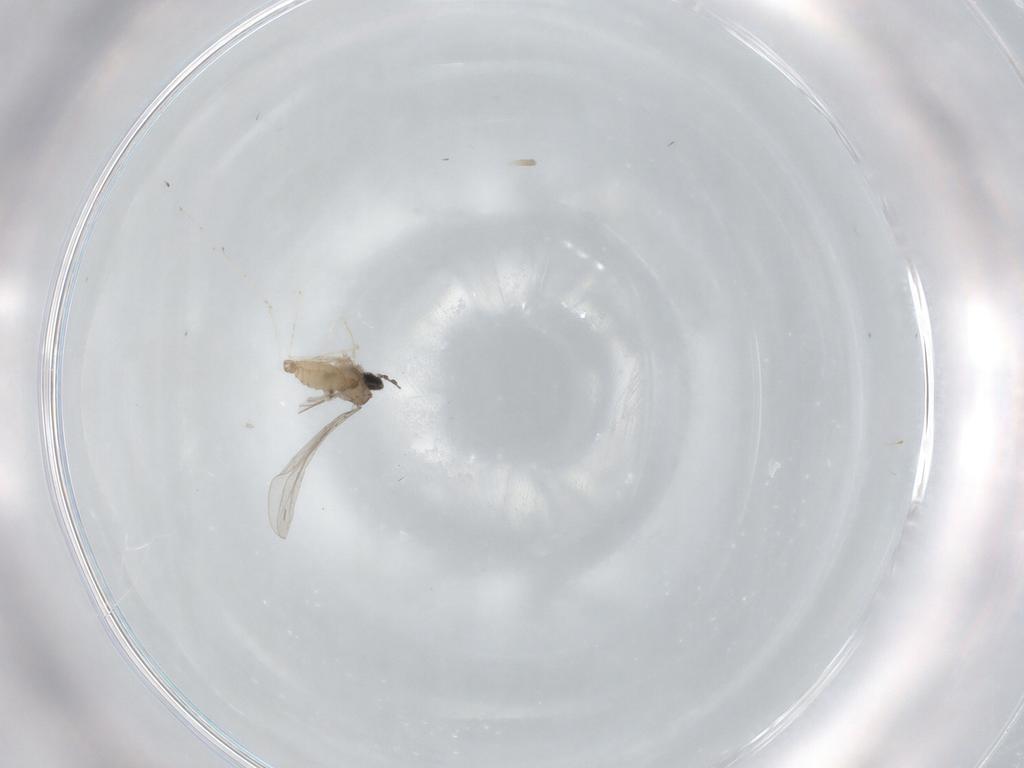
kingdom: Animalia
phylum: Arthropoda
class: Insecta
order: Diptera
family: Cecidomyiidae
